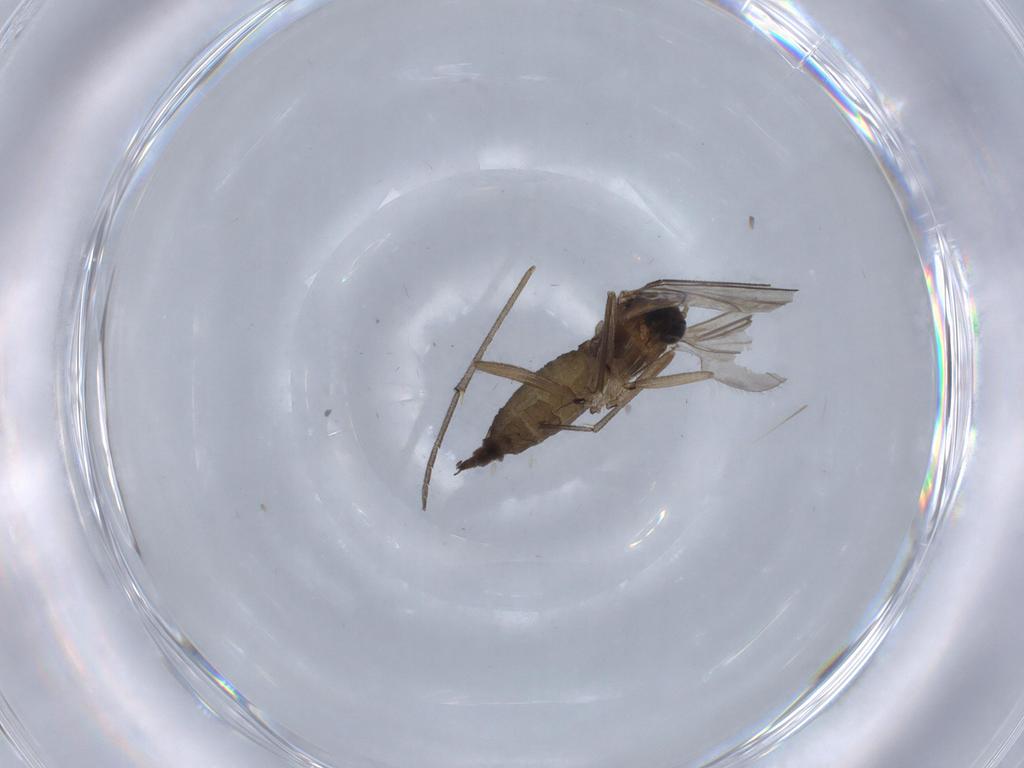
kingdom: Animalia
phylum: Arthropoda
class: Insecta
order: Diptera
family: Sciaridae
